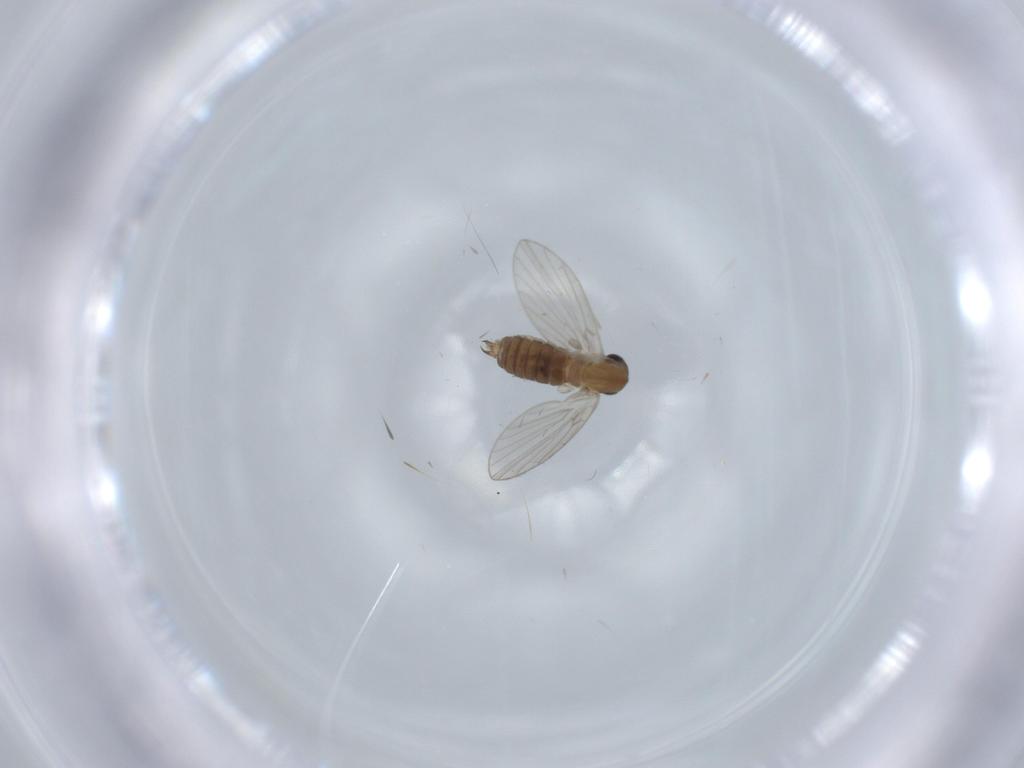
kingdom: Animalia
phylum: Arthropoda
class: Insecta
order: Diptera
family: Psychodidae
